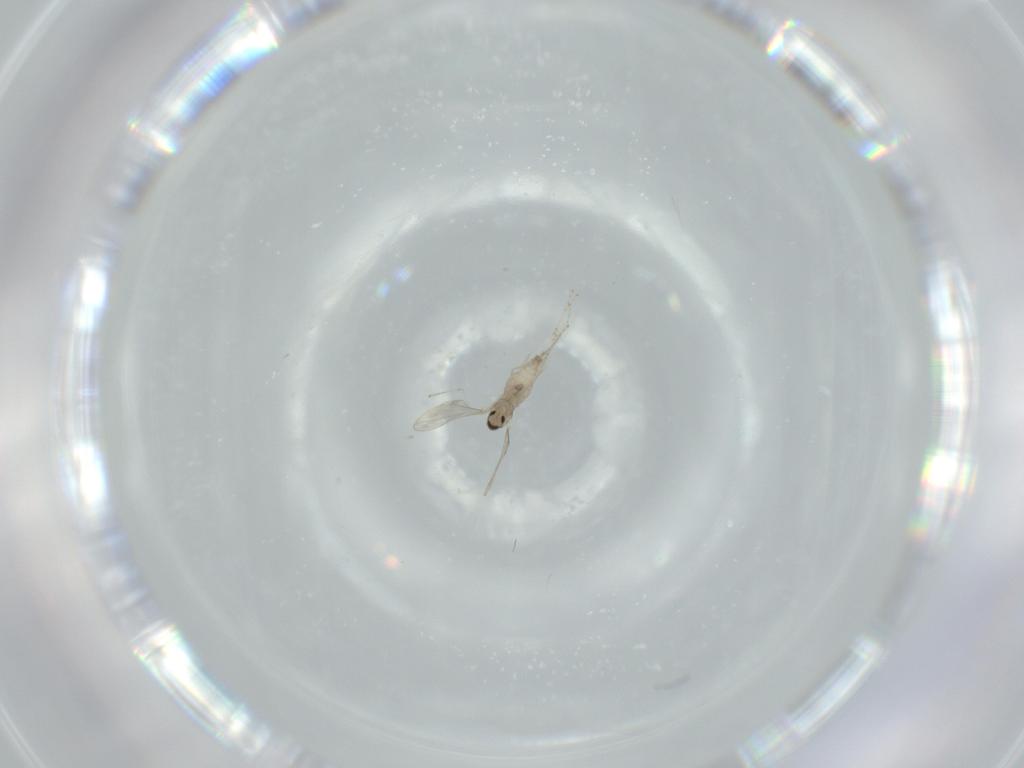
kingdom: Animalia
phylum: Arthropoda
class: Insecta
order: Diptera
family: Cecidomyiidae
